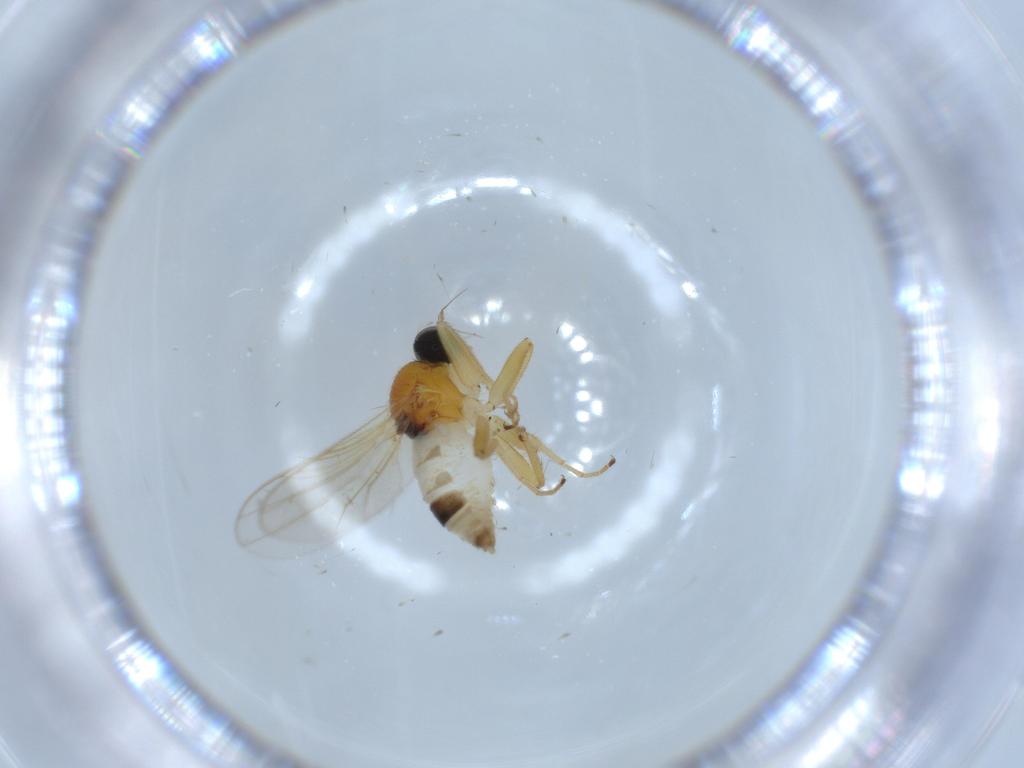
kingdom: Animalia
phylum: Arthropoda
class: Insecta
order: Diptera
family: Hybotidae
